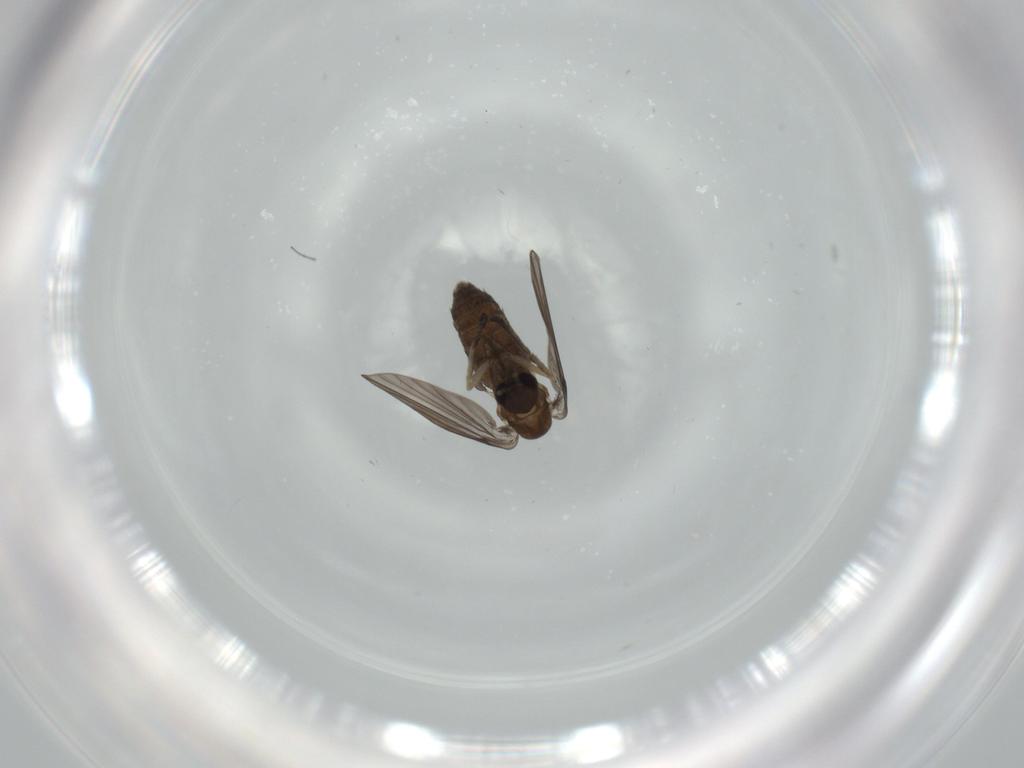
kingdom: Animalia
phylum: Arthropoda
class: Insecta
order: Diptera
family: Psychodidae
